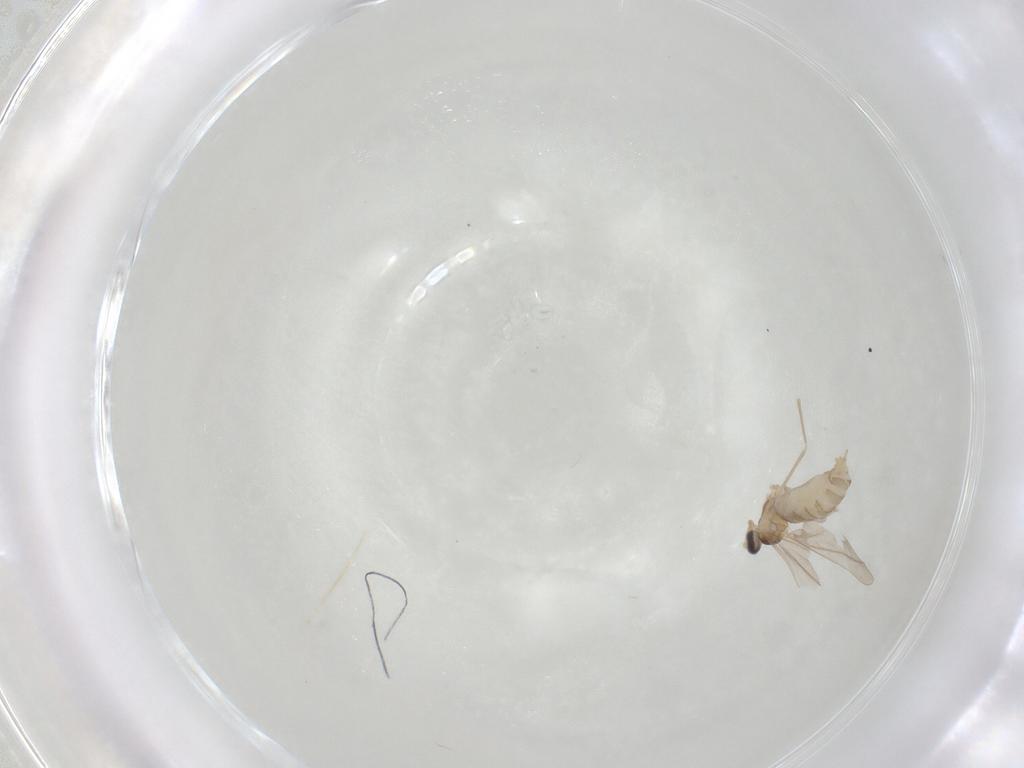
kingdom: Animalia
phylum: Arthropoda
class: Insecta
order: Diptera
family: Cecidomyiidae
